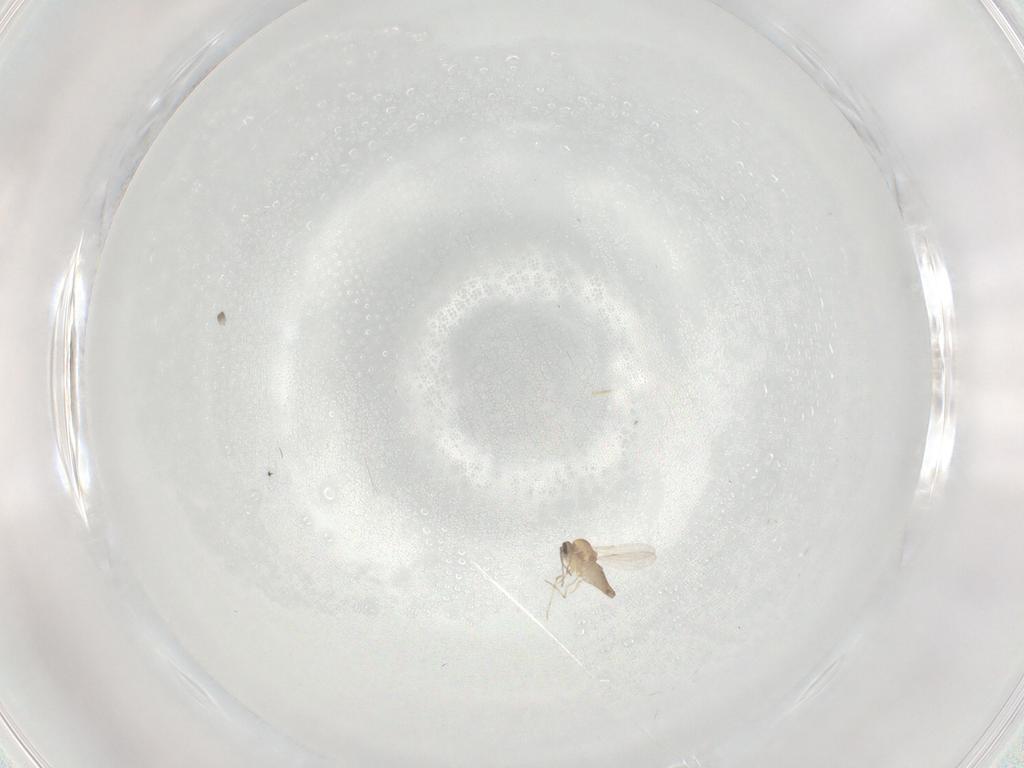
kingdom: Animalia
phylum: Arthropoda
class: Insecta
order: Diptera
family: Ceratopogonidae
